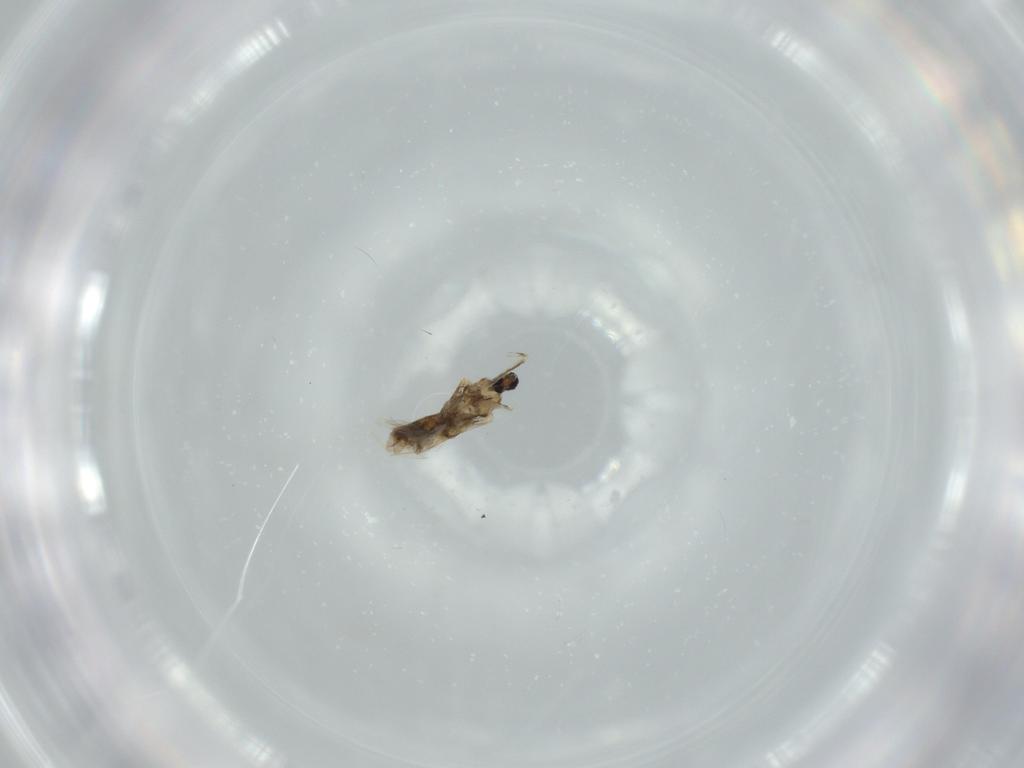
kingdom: Animalia
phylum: Arthropoda
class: Insecta
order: Diptera
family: Cecidomyiidae
